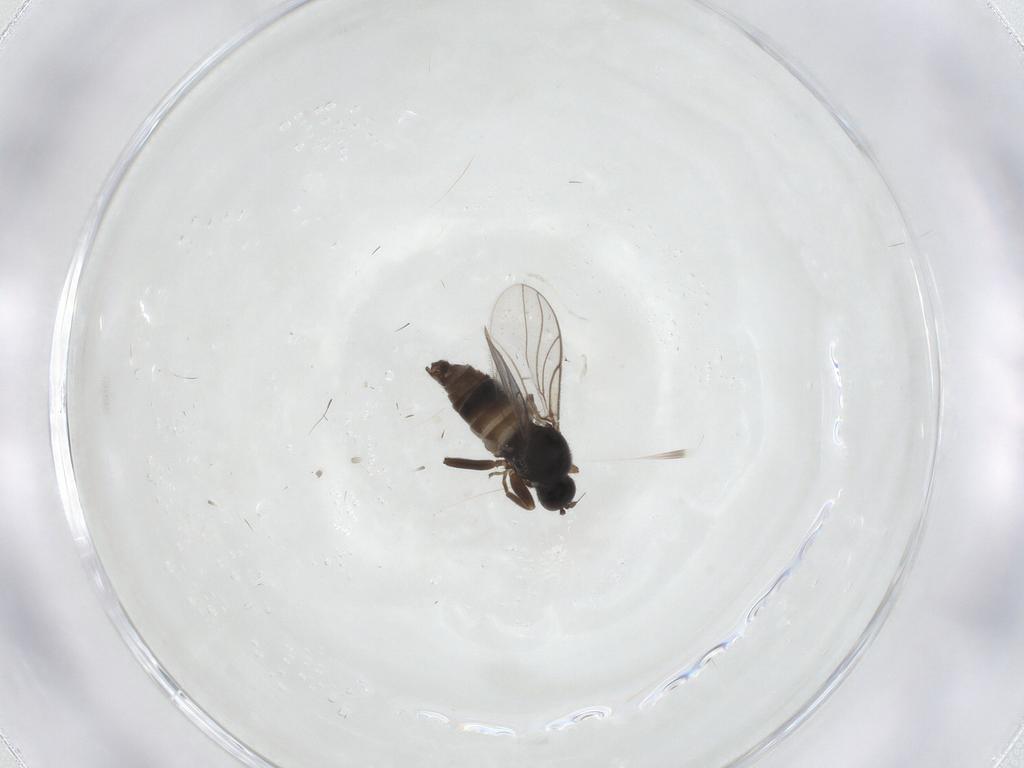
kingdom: Animalia
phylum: Arthropoda
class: Insecta
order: Diptera
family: Hybotidae
